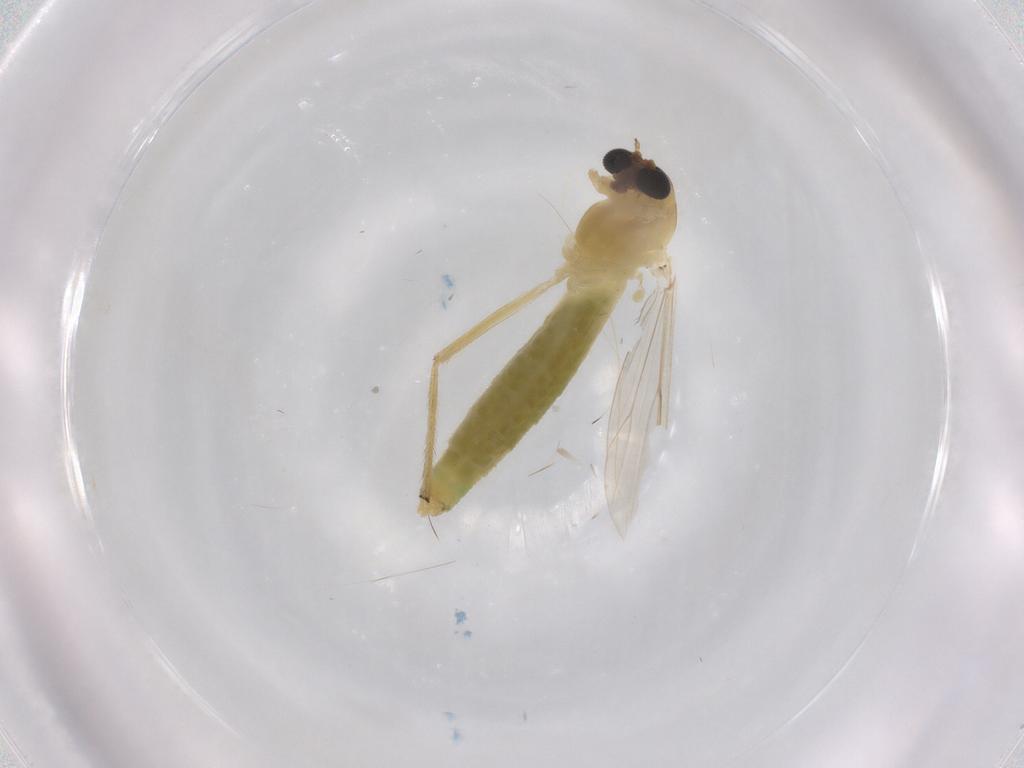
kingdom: Animalia
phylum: Arthropoda
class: Insecta
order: Diptera
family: Chironomidae
